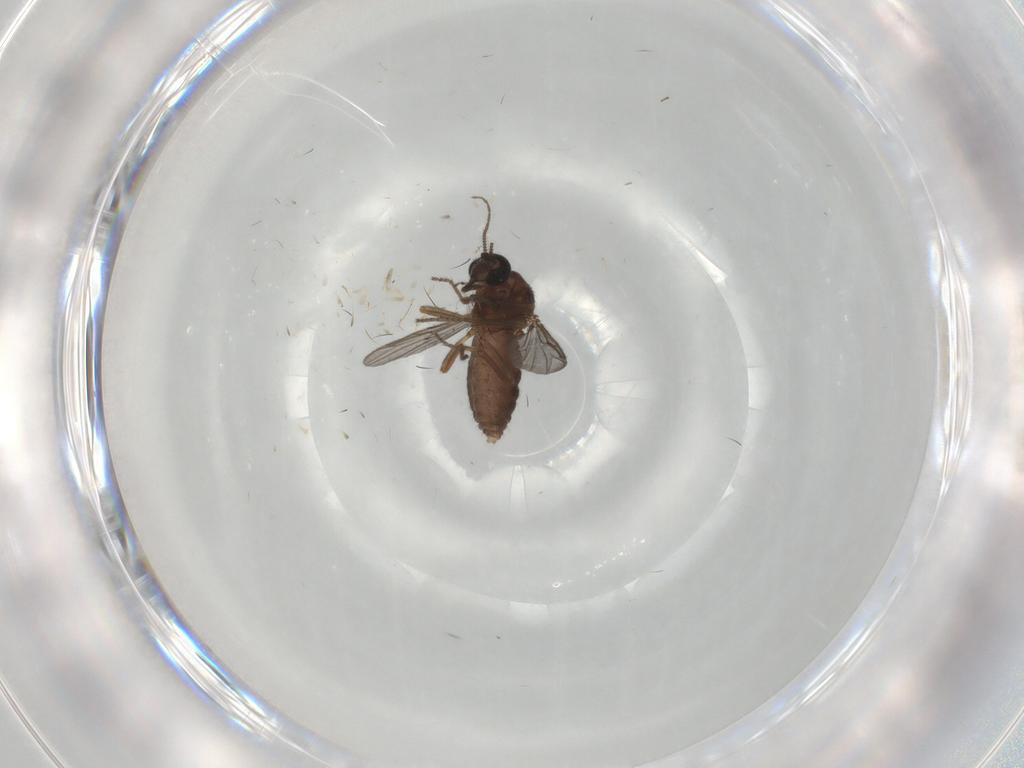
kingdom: Animalia
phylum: Arthropoda
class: Insecta
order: Diptera
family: Ceratopogonidae
